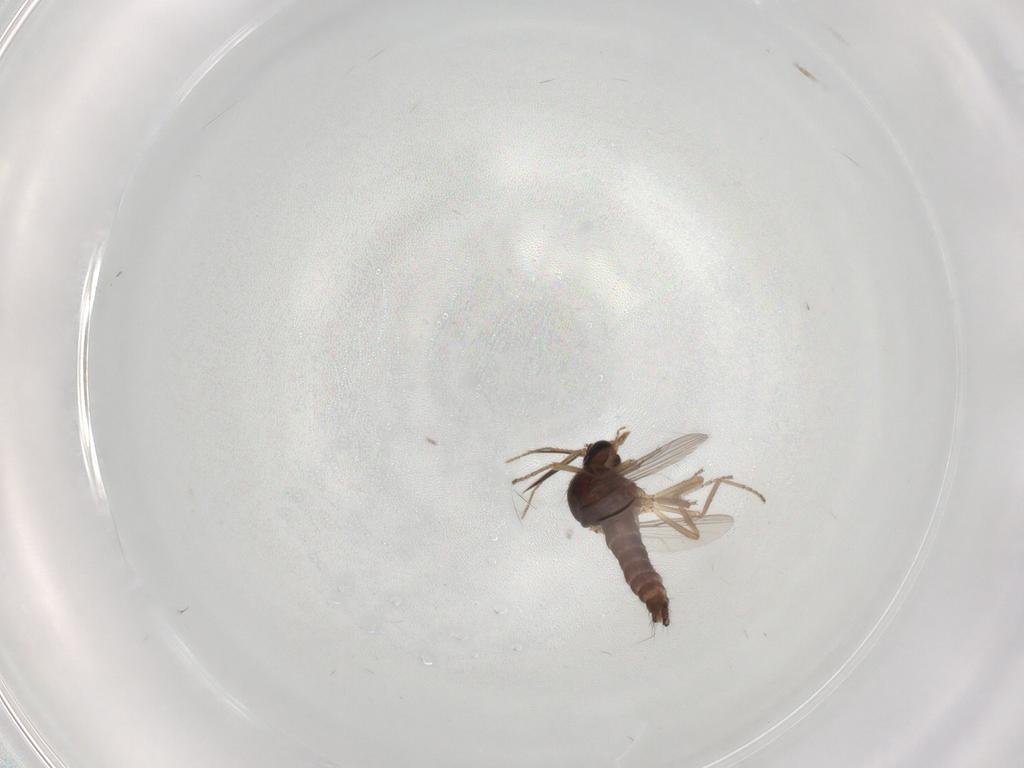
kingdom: Animalia
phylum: Arthropoda
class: Insecta
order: Diptera
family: Ceratopogonidae
